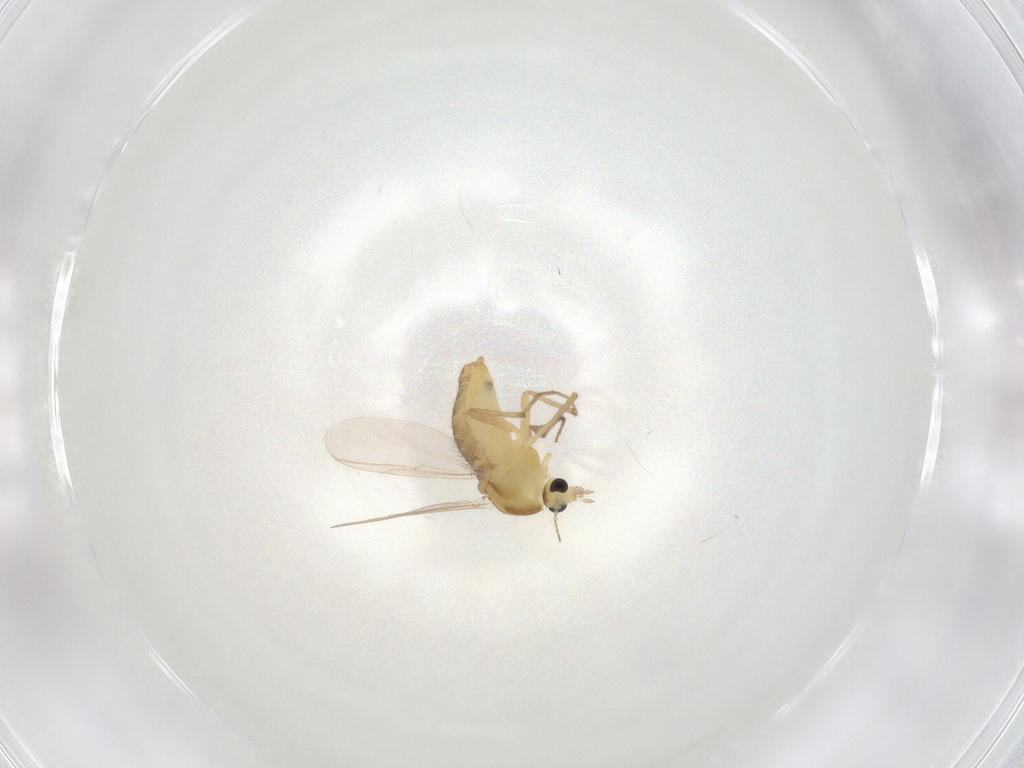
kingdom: Animalia
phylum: Arthropoda
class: Insecta
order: Diptera
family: Chironomidae
